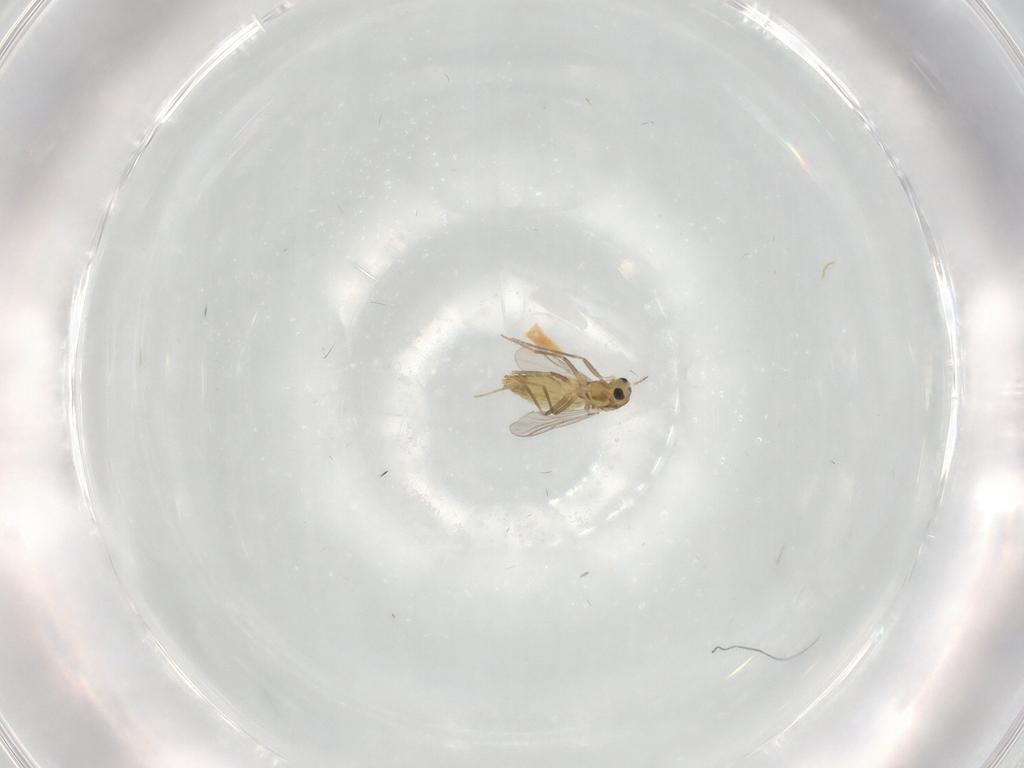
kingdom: Animalia
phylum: Arthropoda
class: Insecta
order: Diptera
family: Chironomidae
